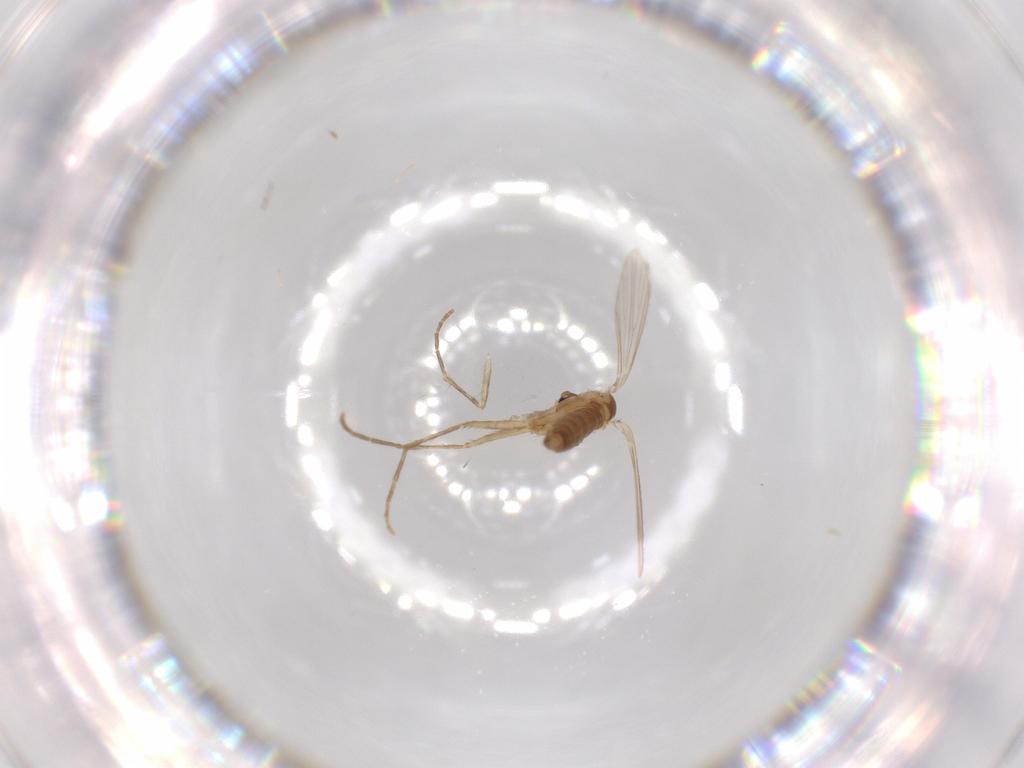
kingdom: Animalia
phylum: Arthropoda
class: Insecta
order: Diptera
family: Psychodidae
